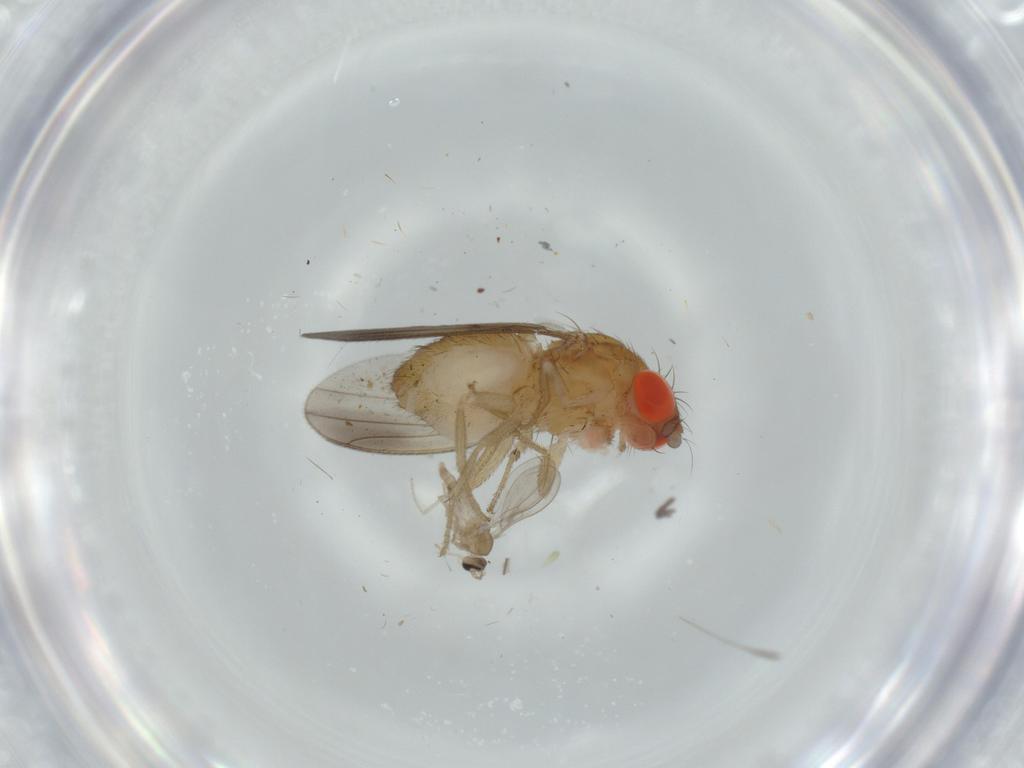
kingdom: Animalia
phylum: Arthropoda
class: Insecta
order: Diptera
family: Drosophilidae
